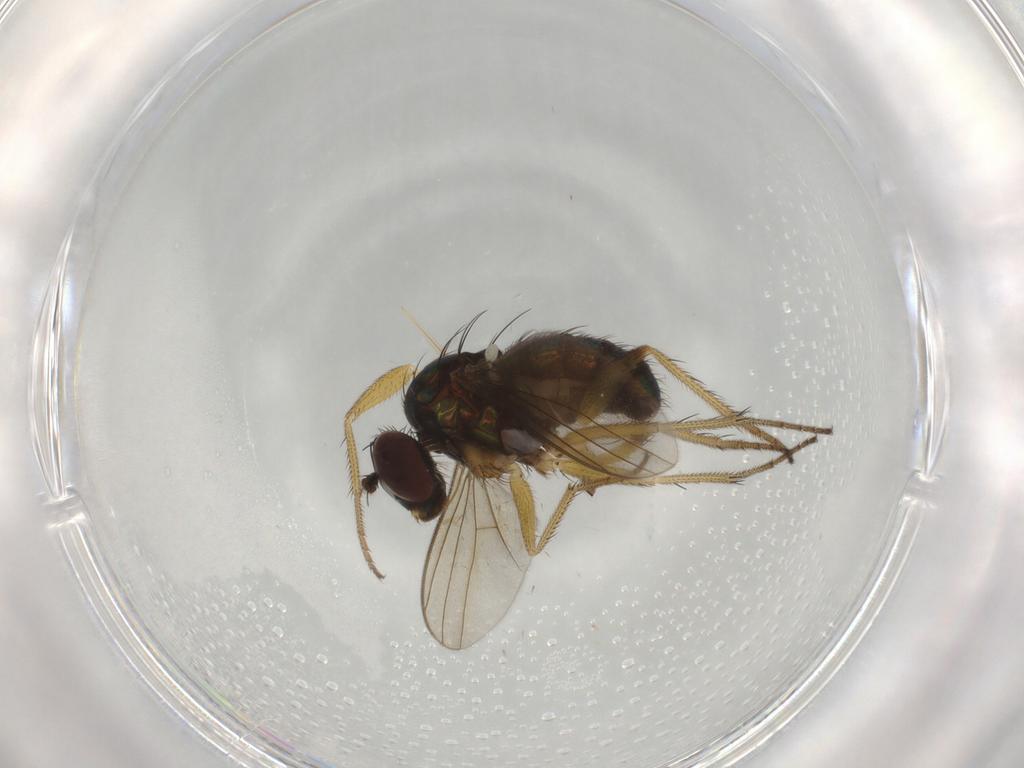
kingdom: Animalia
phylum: Arthropoda
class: Insecta
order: Diptera
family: Dolichopodidae
